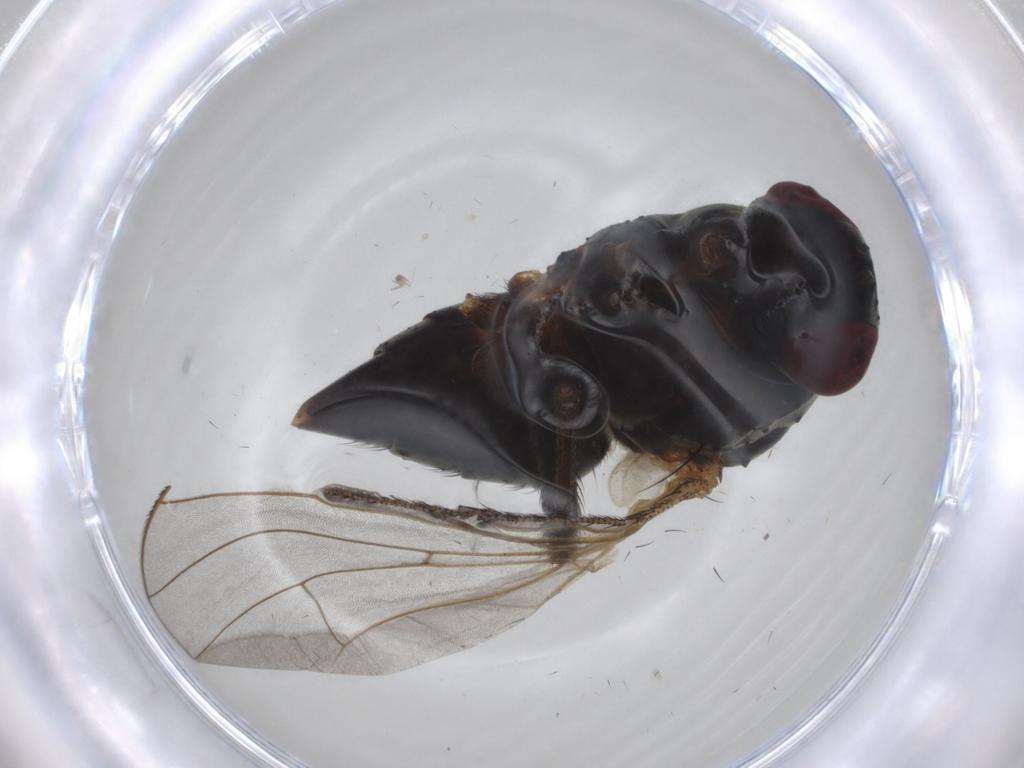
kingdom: Animalia
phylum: Arthropoda
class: Insecta
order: Diptera
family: Muscidae
